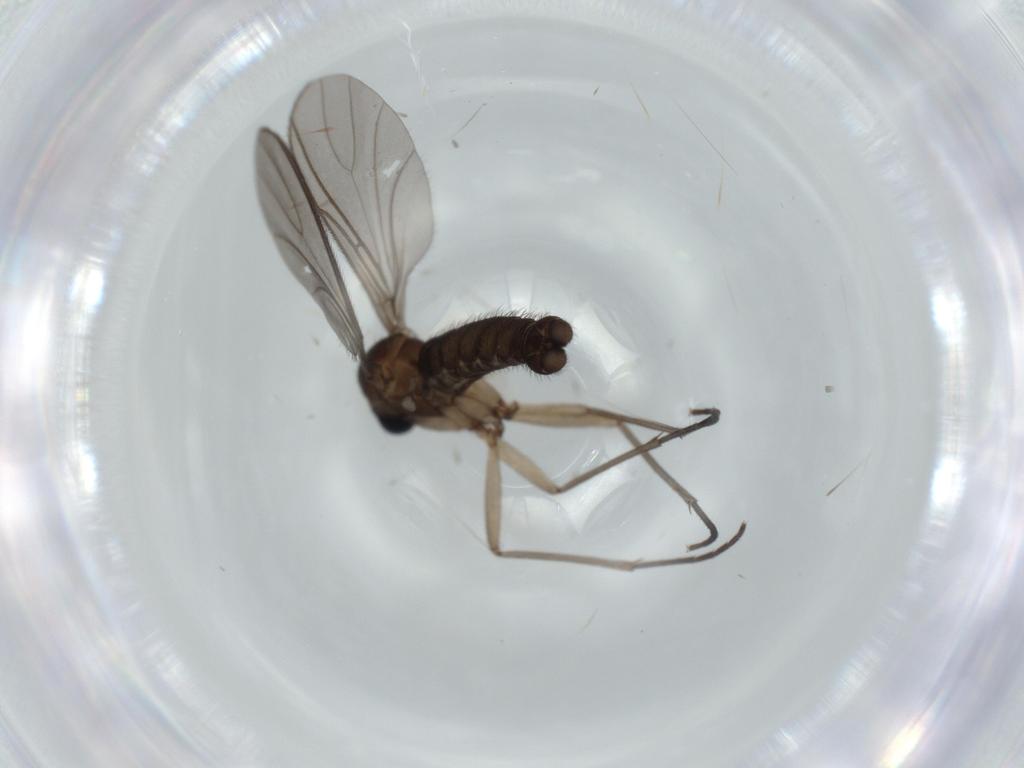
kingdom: Animalia
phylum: Arthropoda
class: Insecta
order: Diptera
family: Sciaridae
